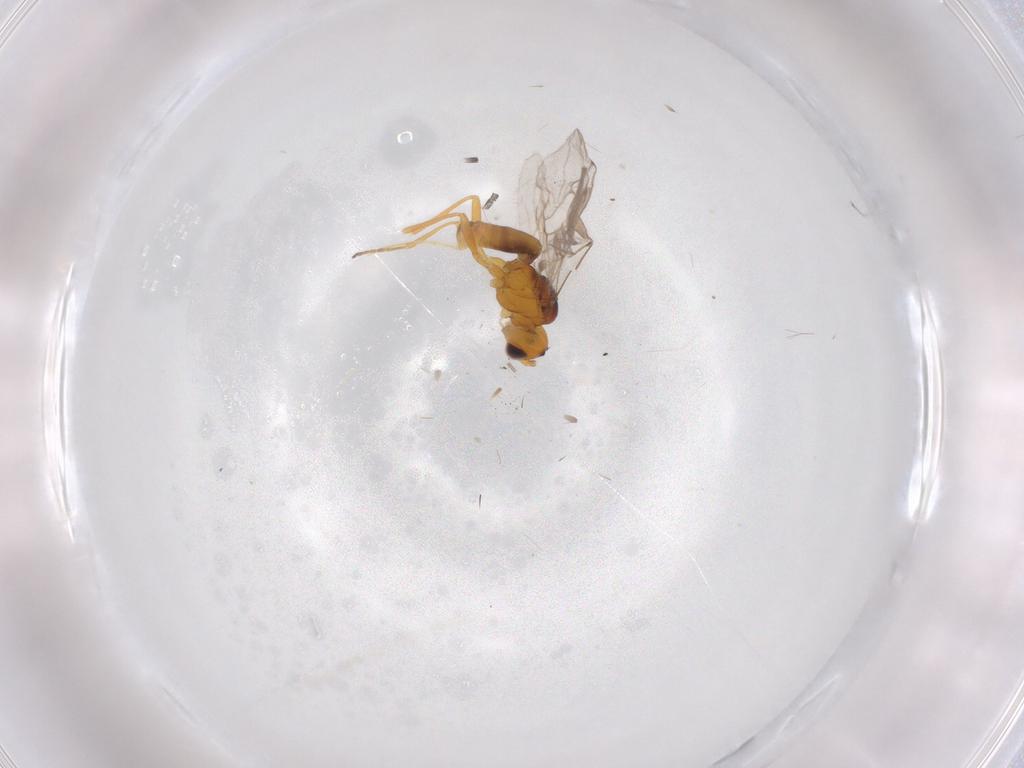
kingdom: Animalia
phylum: Arthropoda
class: Insecta
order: Hymenoptera
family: Braconidae
